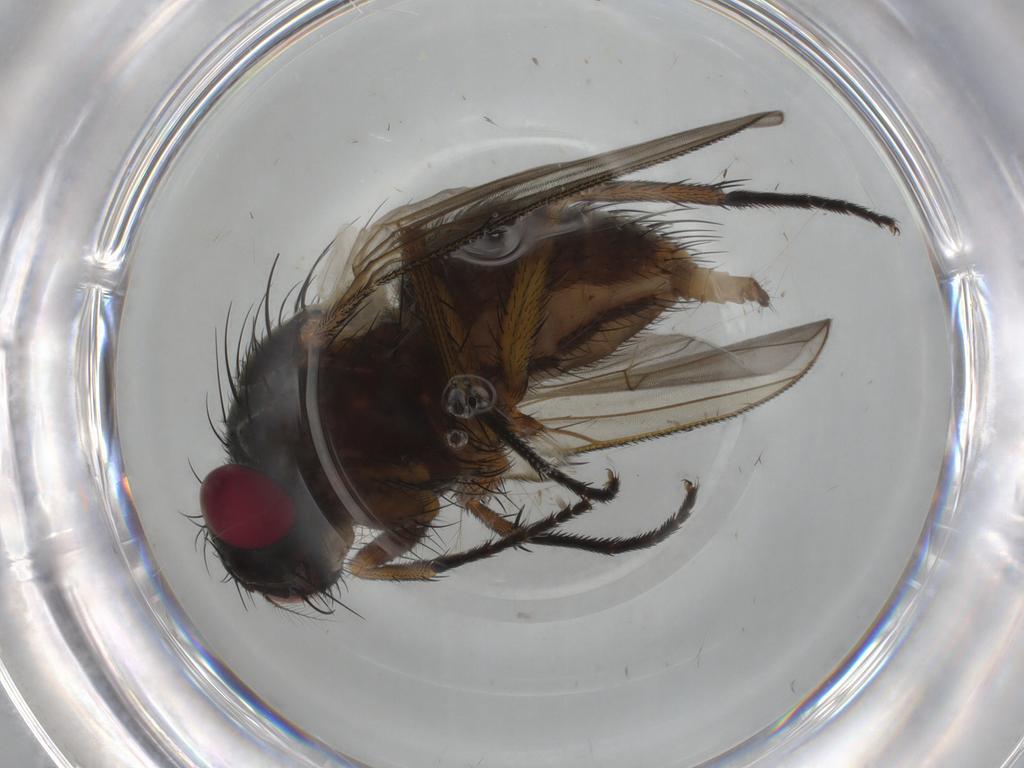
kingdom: Animalia
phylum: Arthropoda
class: Insecta
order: Diptera
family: Muscidae
